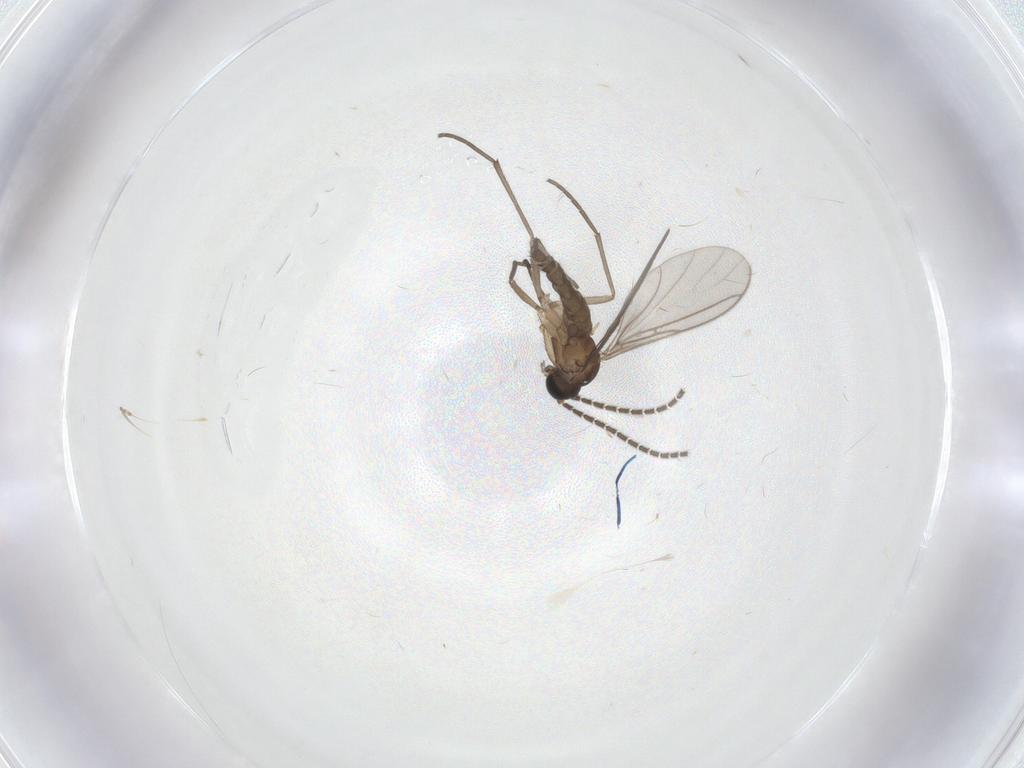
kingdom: Animalia
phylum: Arthropoda
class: Insecta
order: Diptera
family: Sciaridae
